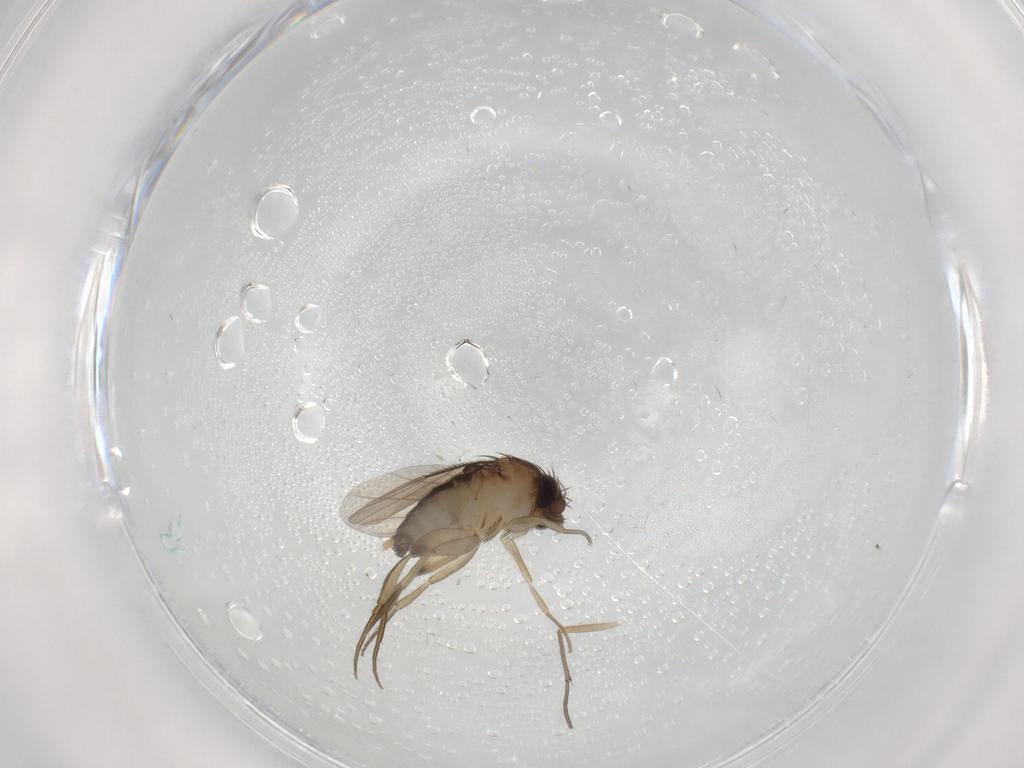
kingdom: Animalia
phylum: Arthropoda
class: Insecta
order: Diptera
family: Phoridae
